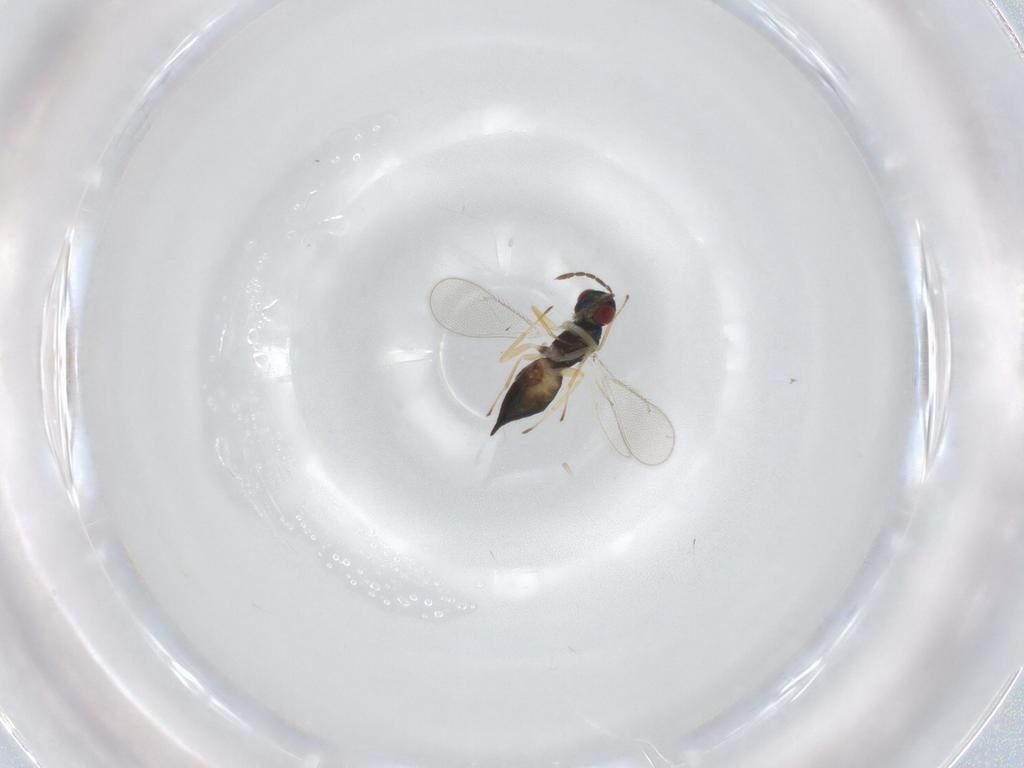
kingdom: Animalia
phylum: Arthropoda
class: Insecta
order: Hymenoptera
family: Eulophidae
